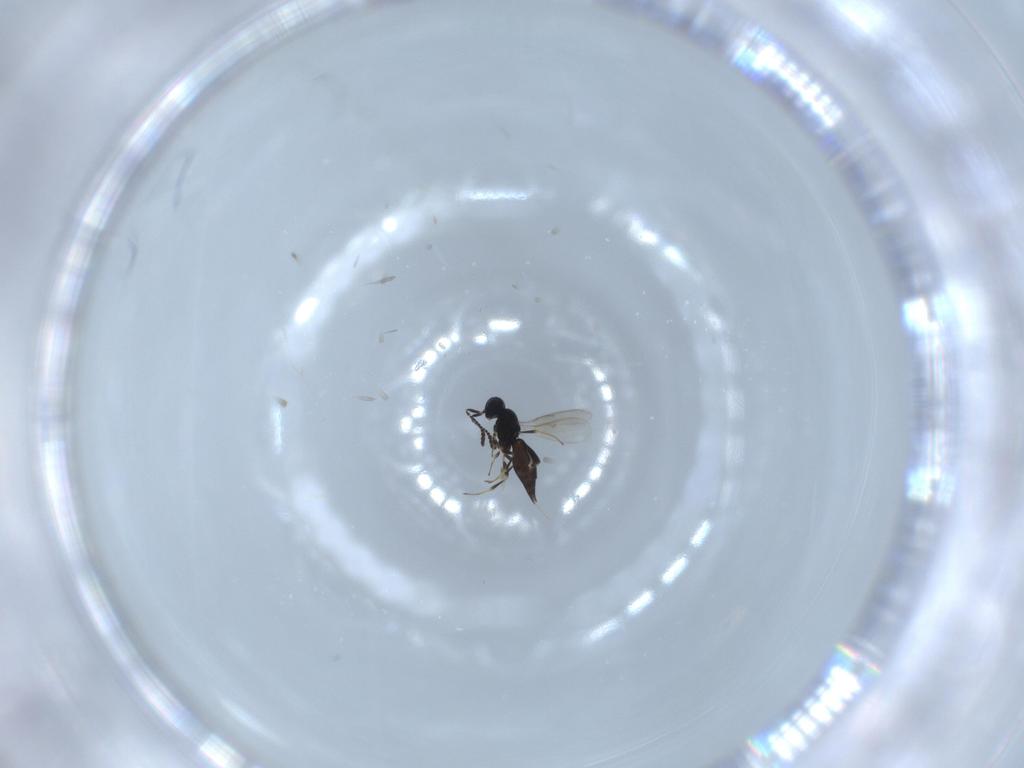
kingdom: Animalia
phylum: Arthropoda
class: Insecta
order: Hymenoptera
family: Scelionidae
